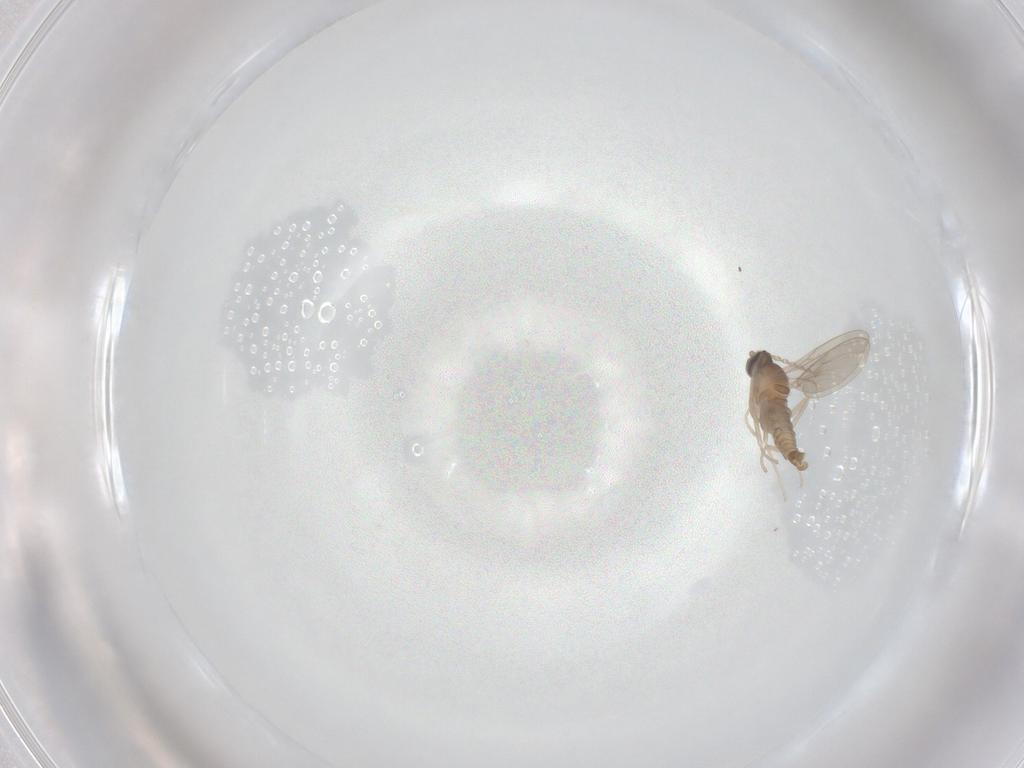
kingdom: Animalia
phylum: Arthropoda
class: Insecta
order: Diptera
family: Cecidomyiidae
